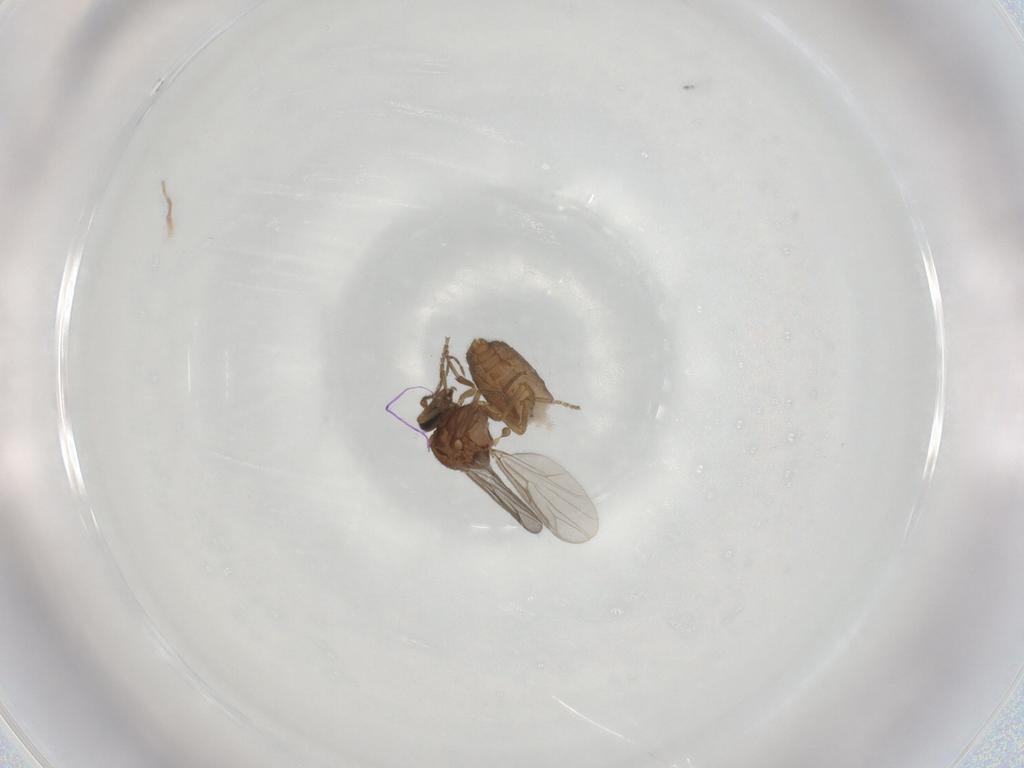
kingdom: Animalia
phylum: Arthropoda
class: Insecta
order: Diptera
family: Ceratopogonidae
